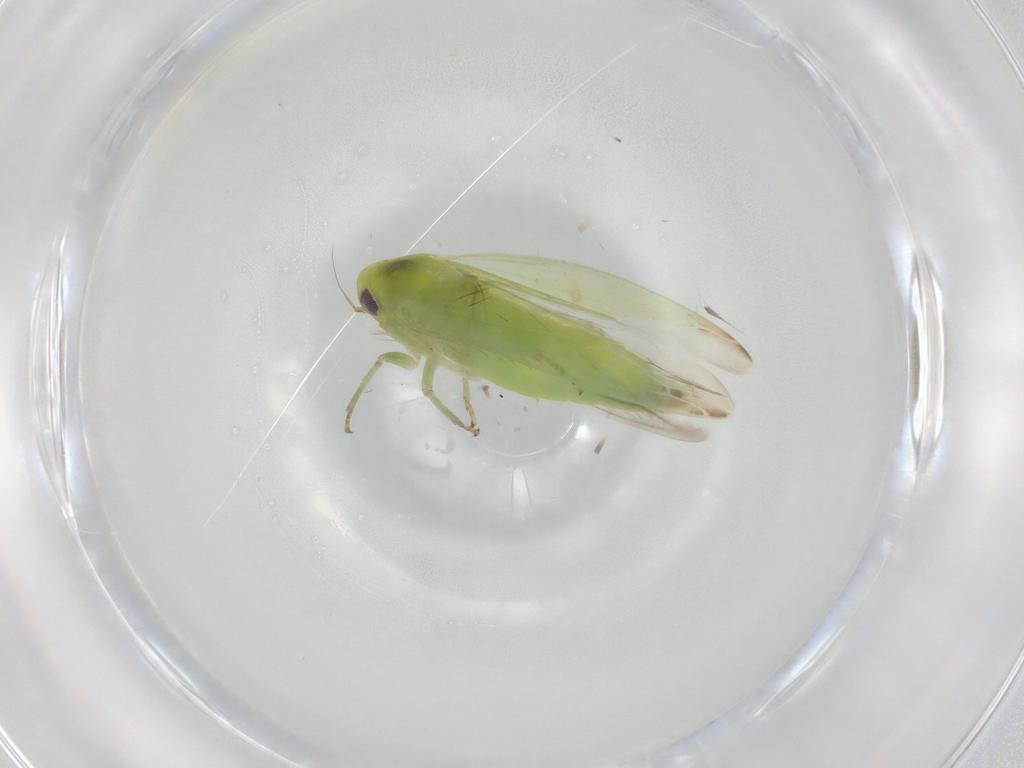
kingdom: Animalia
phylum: Arthropoda
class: Insecta
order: Hemiptera
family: Cicadellidae
